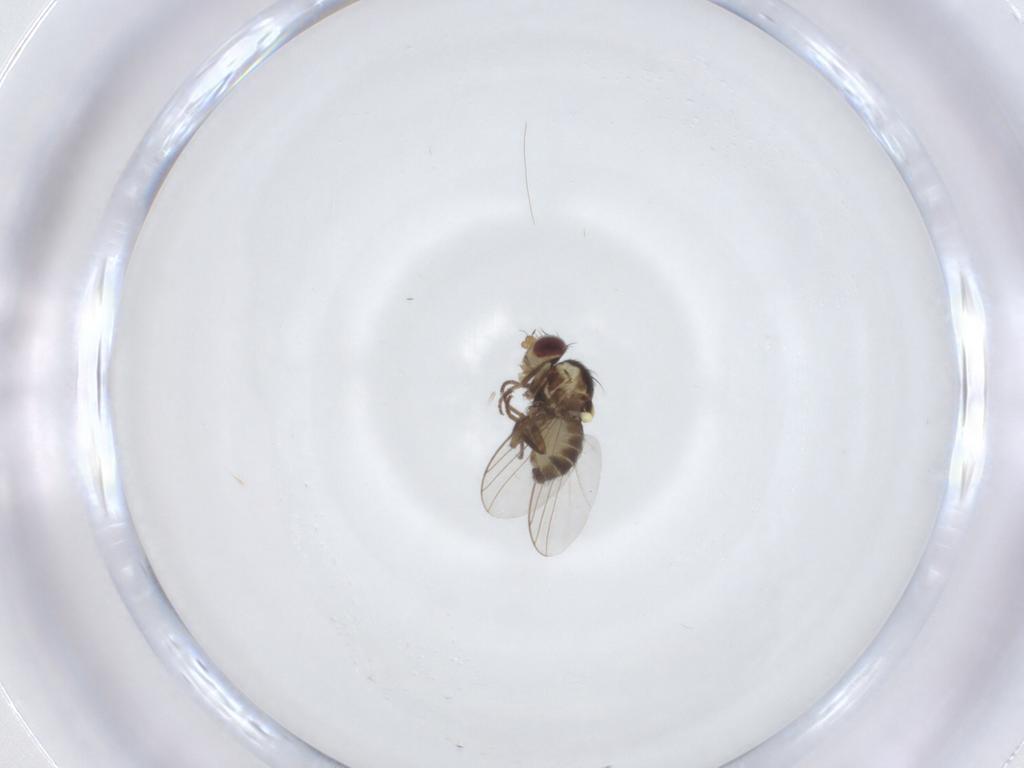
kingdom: Animalia
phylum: Arthropoda
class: Insecta
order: Diptera
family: Agromyzidae
